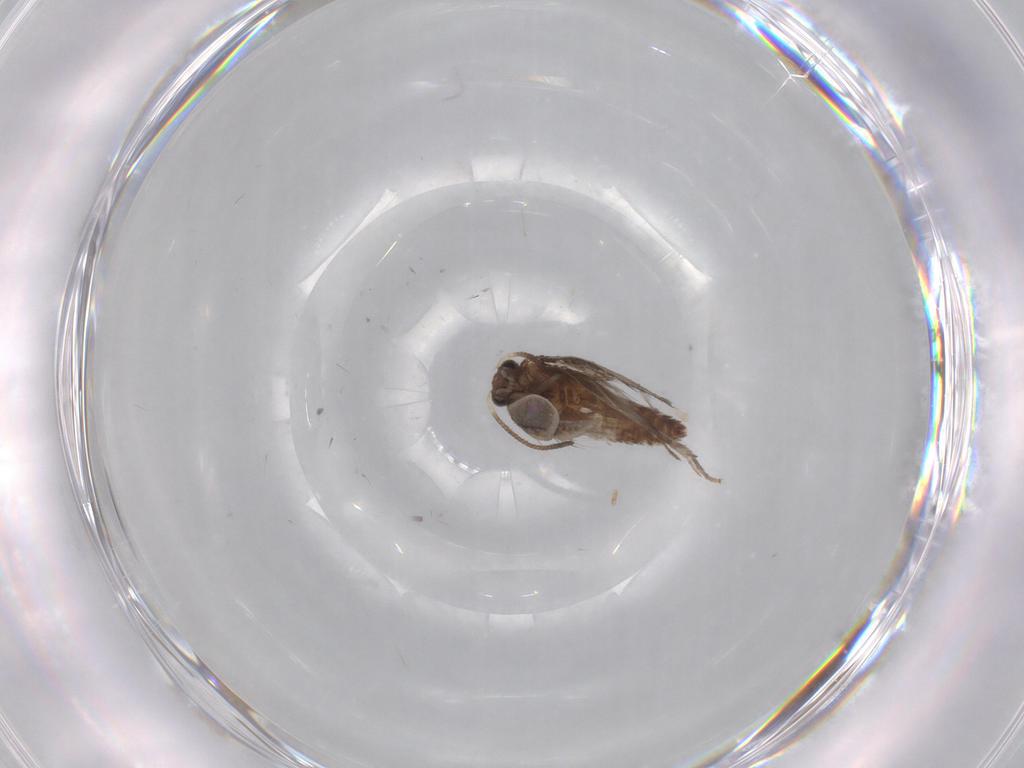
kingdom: Animalia
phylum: Arthropoda
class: Insecta
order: Lepidoptera
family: Nepticulidae
